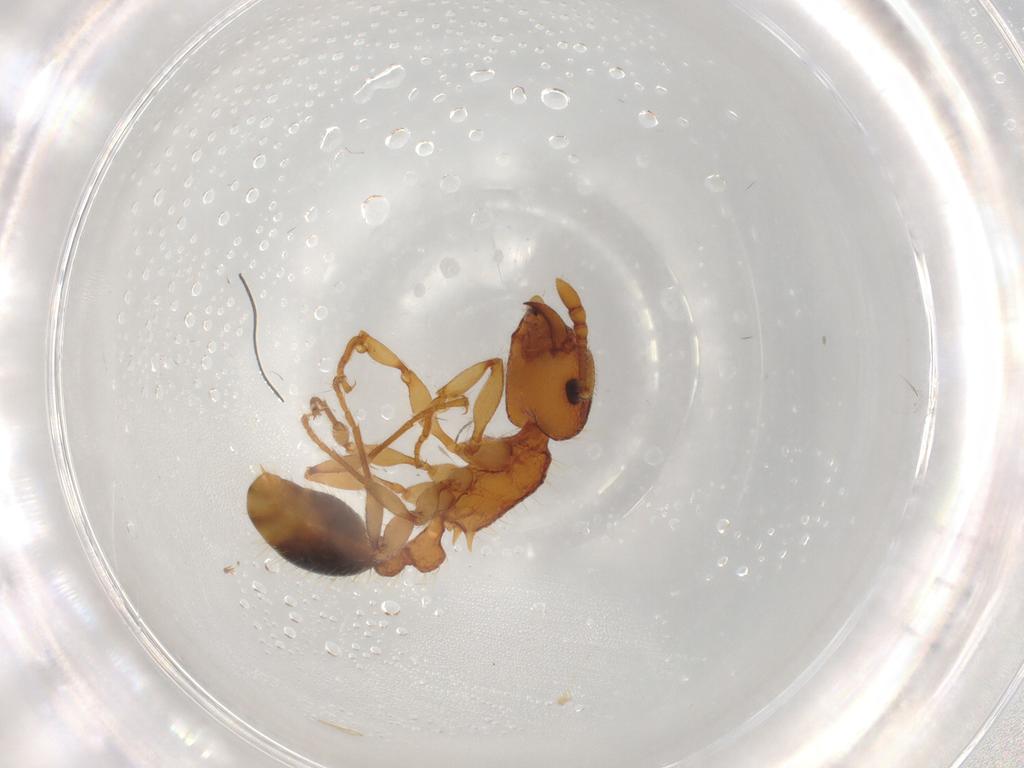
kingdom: Animalia
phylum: Arthropoda
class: Insecta
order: Hymenoptera
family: Formicidae
